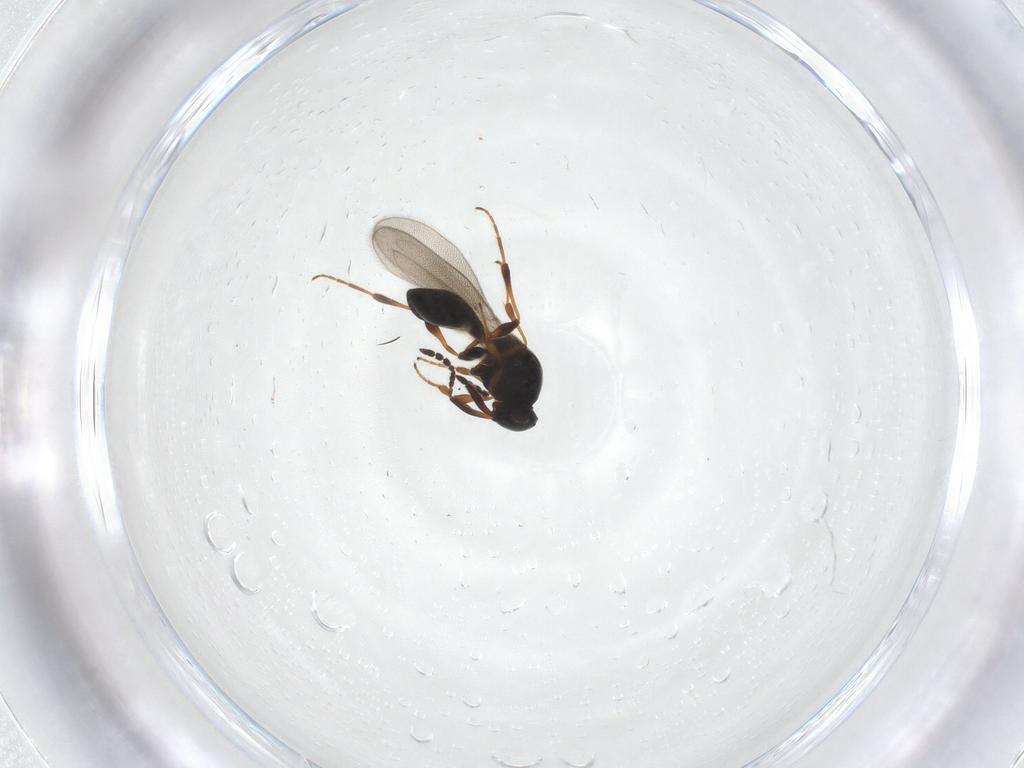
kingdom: Animalia
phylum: Arthropoda
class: Insecta
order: Hymenoptera
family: Platygastridae
